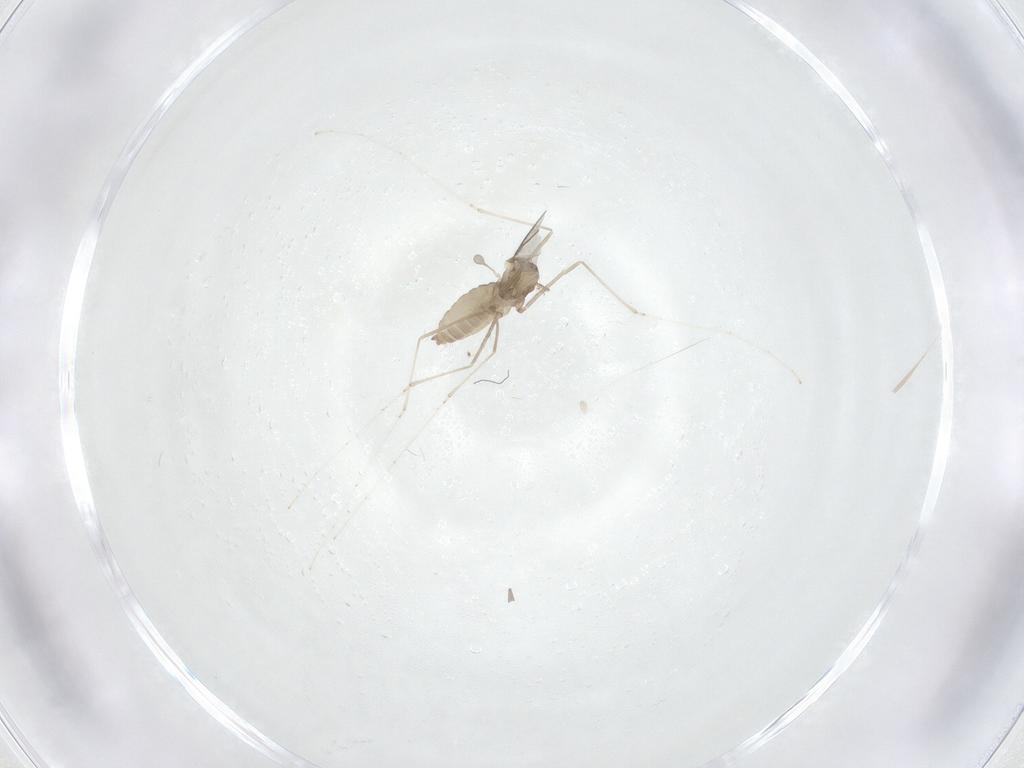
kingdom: Animalia
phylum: Arthropoda
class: Insecta
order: Diptera
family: Cecidomyiidae
